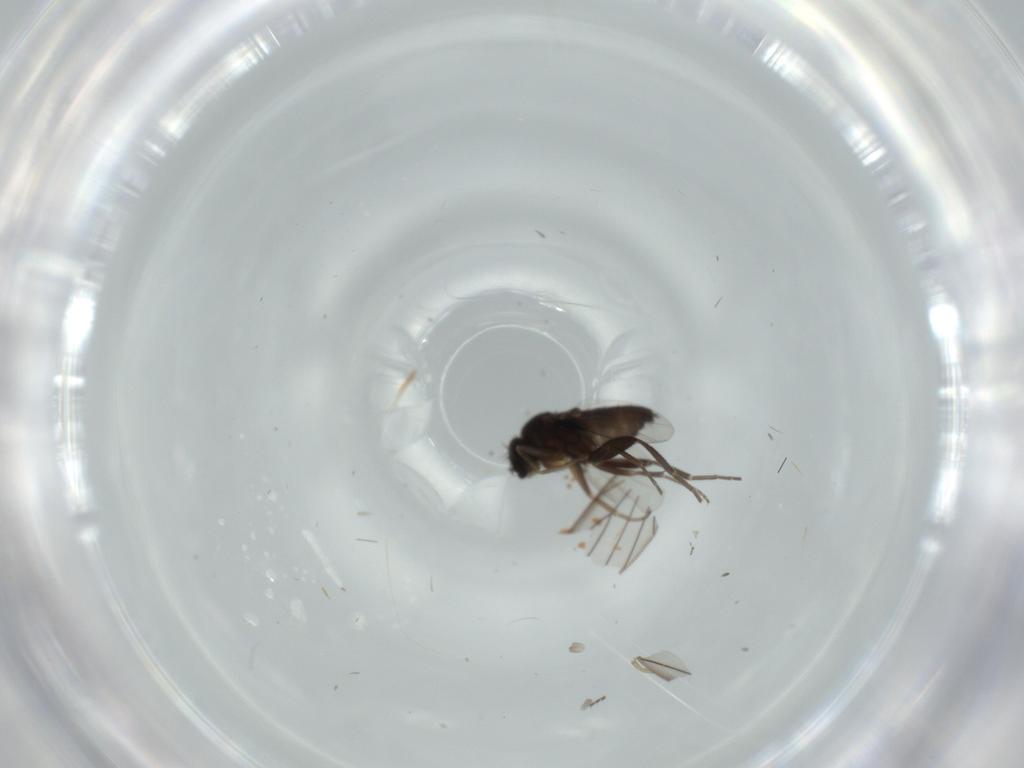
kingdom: Animalia
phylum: Arthropoda
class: Insecta
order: Diptera
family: Phoridae
